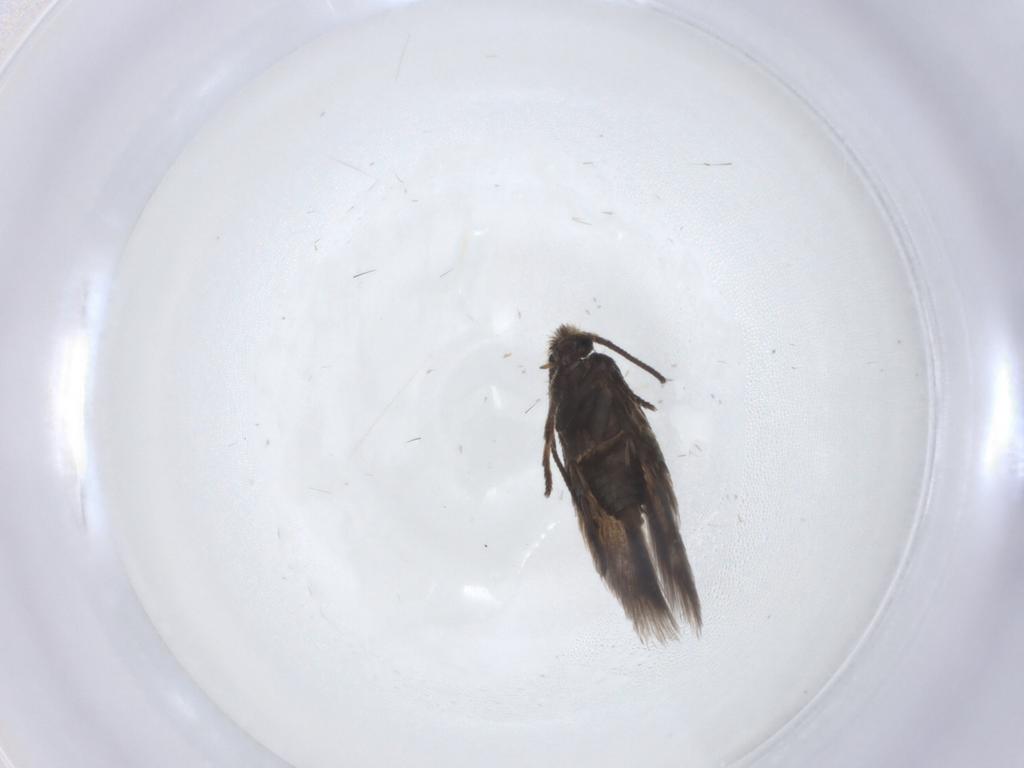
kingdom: Animalia
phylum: Arthropoda
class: Insecta
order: Lepidoptera
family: Nepticulidae
